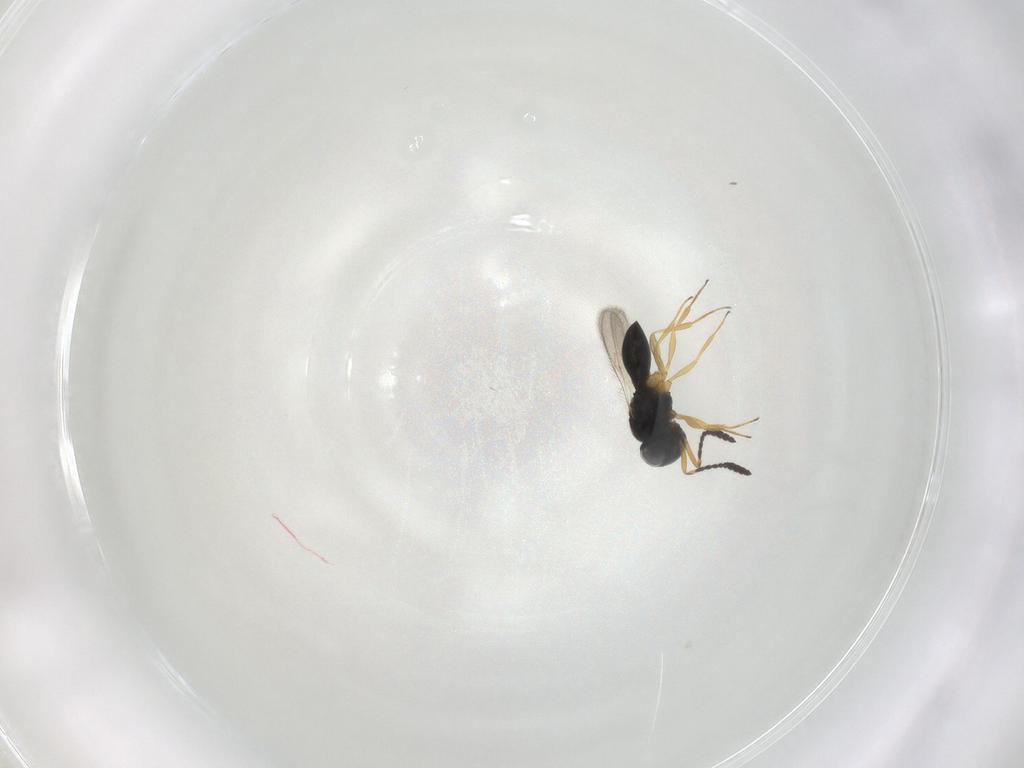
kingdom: Animalia
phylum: Arthropoda
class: Insecta
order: Hymenoptera
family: Scelionidae
